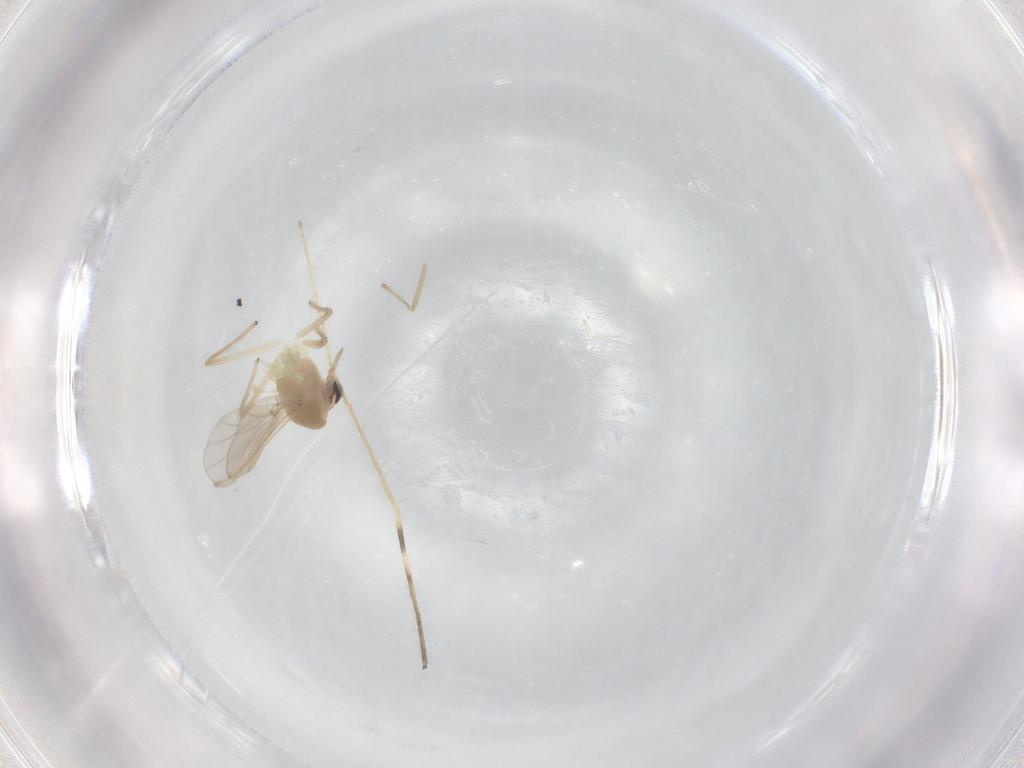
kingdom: Animalia
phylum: Arthropoda
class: Insecta
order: Diptera
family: Chironomidae
